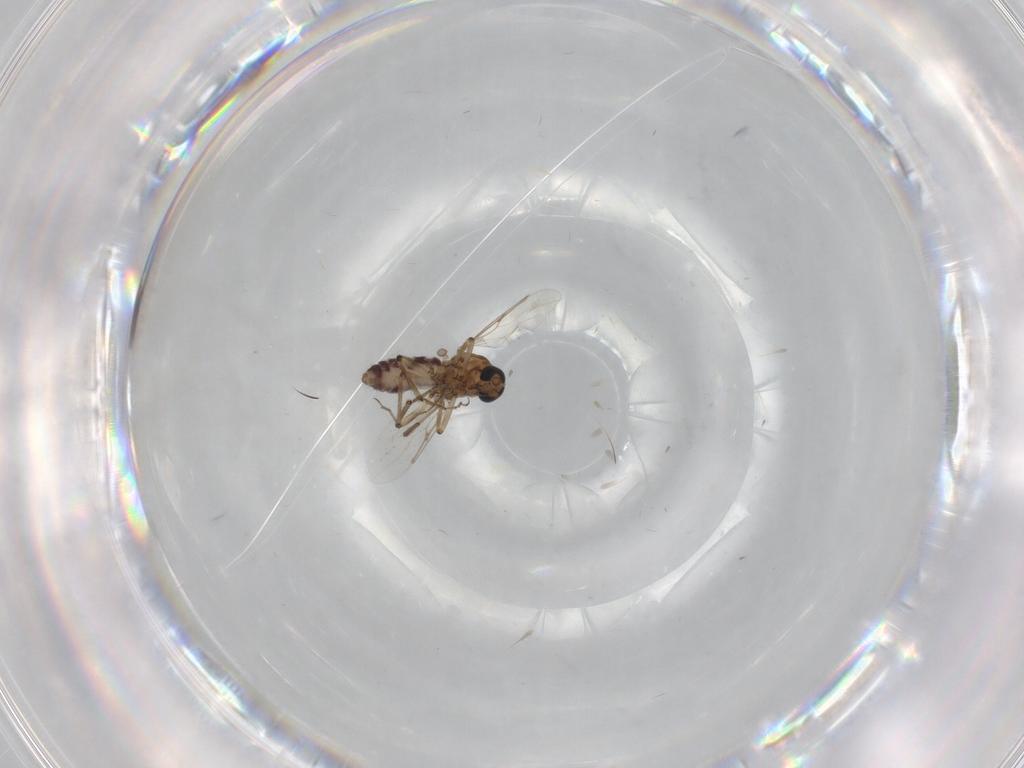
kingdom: Animalia
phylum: Arthropoda
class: Insecta
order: Diptera
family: Ceratopogonidae
